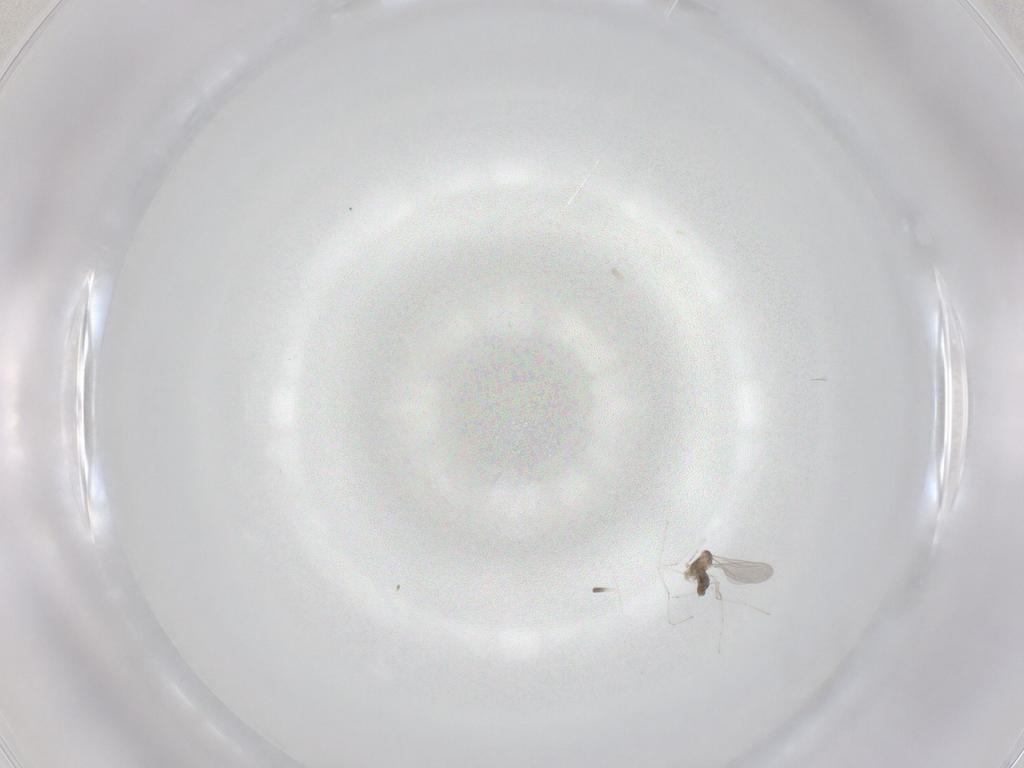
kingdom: Animalia
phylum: Arthropoda
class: Insecta
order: Diptera
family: Cecidomyiidae
